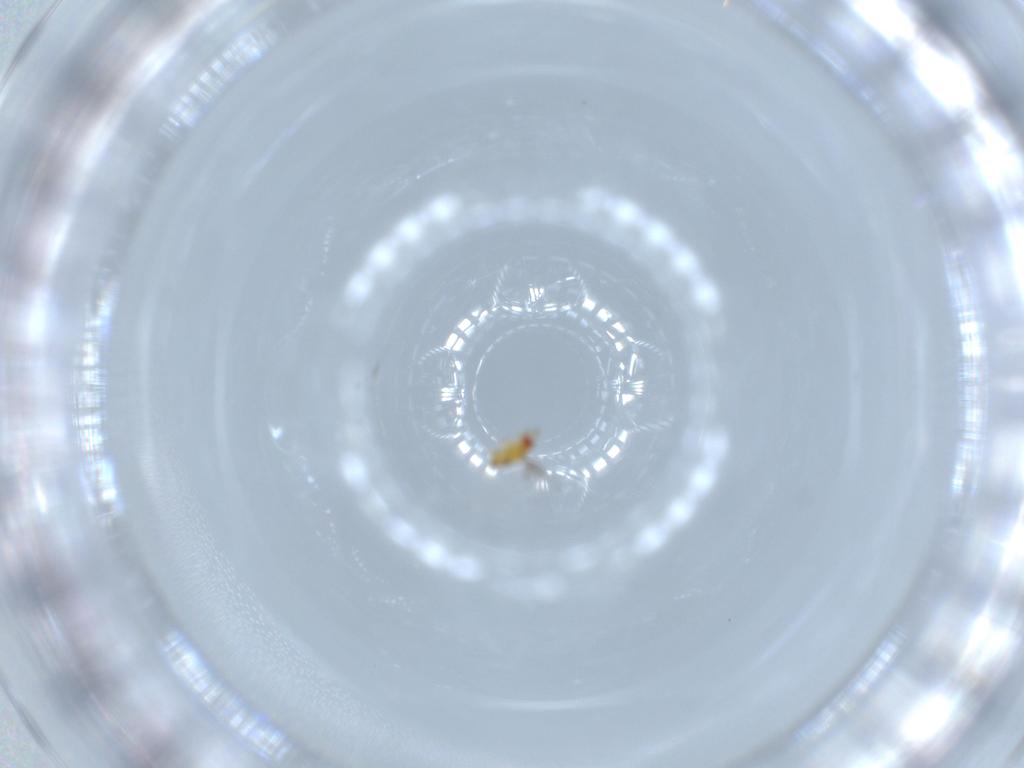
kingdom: Animalia
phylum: Arthropoda
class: Insecta
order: Hymenoptera
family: Trichogrammatidae
